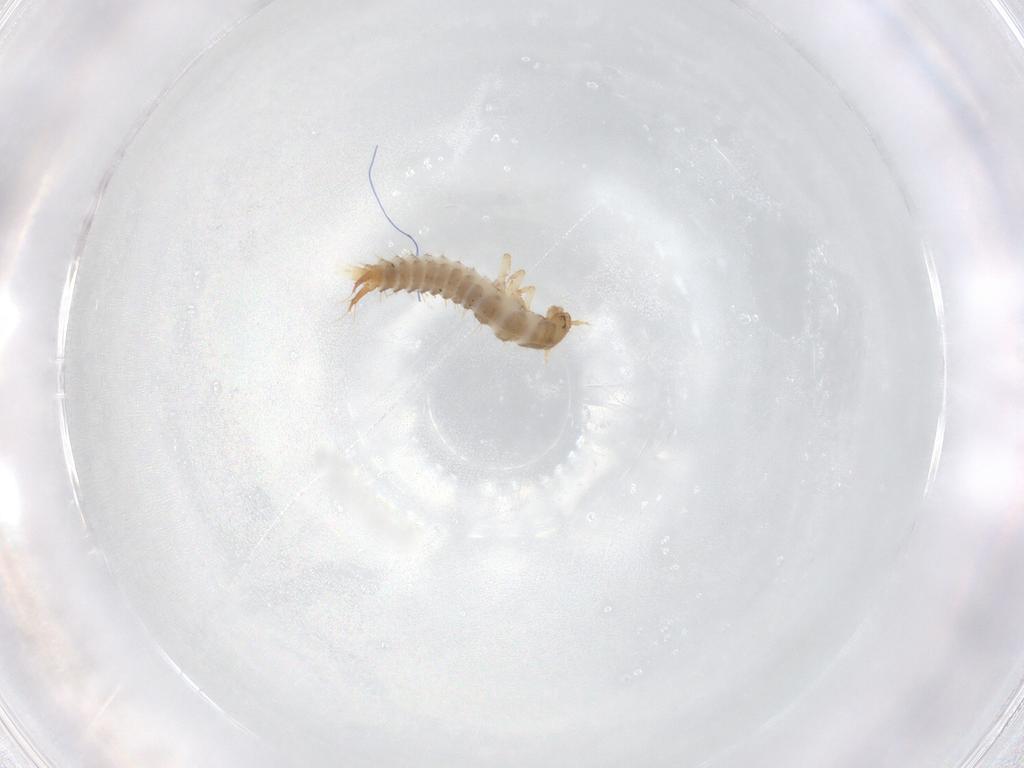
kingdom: Animalia
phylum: Arthropoda
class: Insecta
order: Coleoptera
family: Staphylinidae
